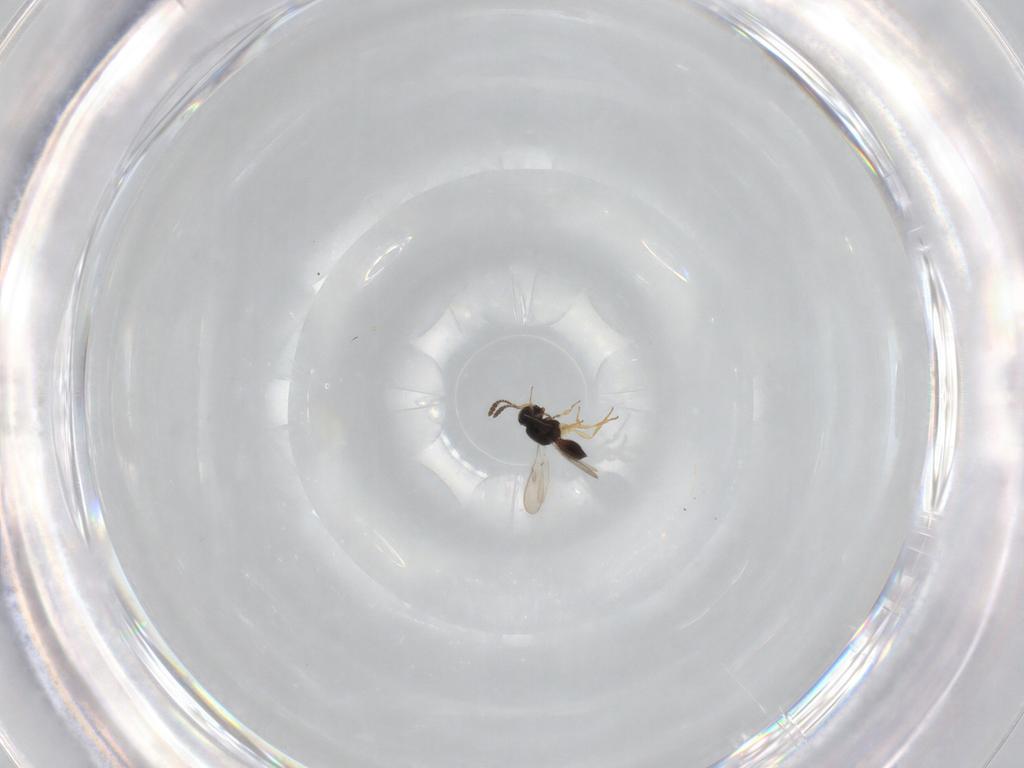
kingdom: Animalia
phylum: Arthropoda
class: Insecta
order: Hymenoptera
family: Scelionidae
